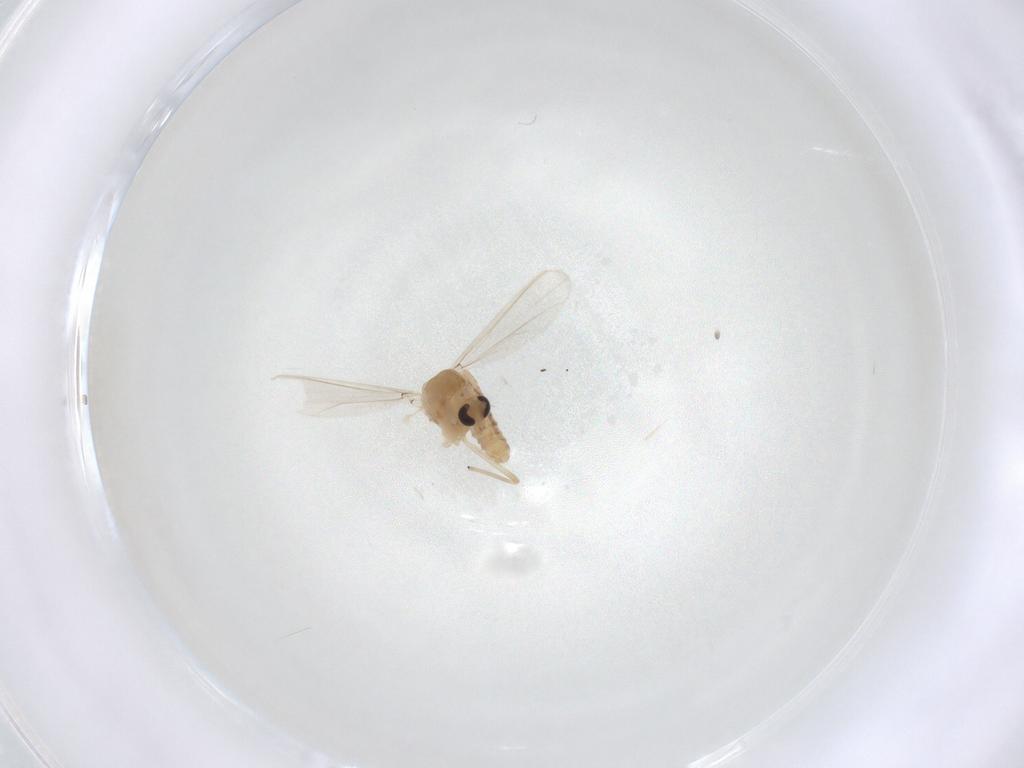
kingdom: Animalia
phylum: Arthropoda
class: Insecta
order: Diptera
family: Chironomidae
